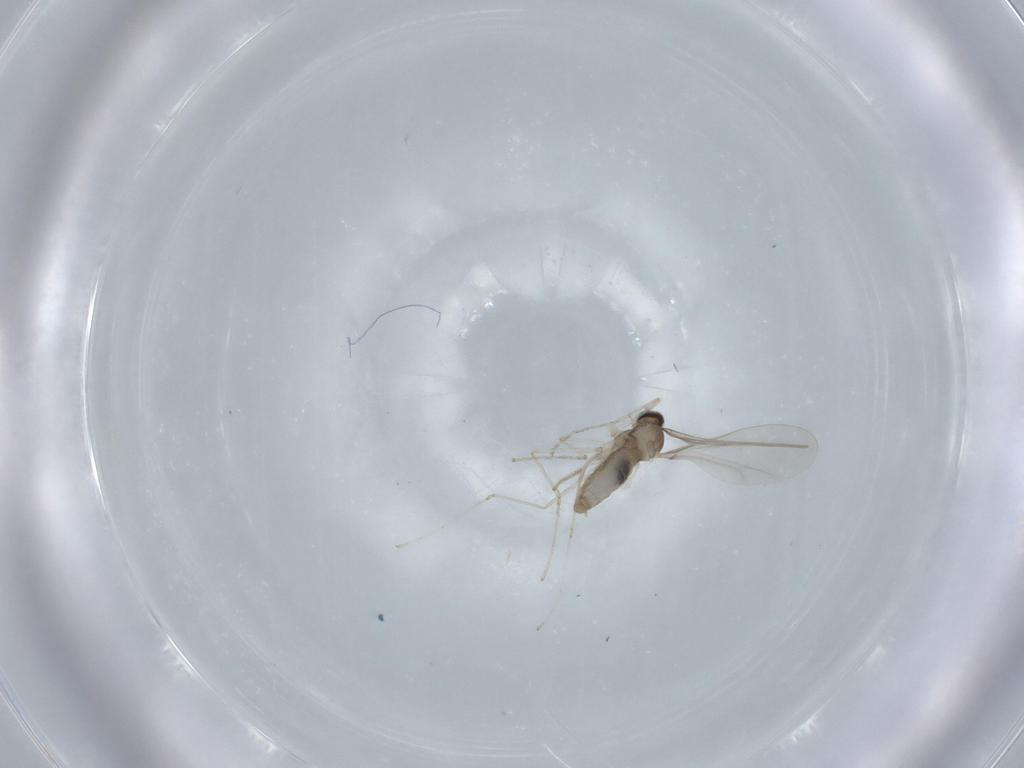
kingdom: Animalia
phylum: Arthropoda
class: Insecta
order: Diptera
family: Cecidomyiidae
